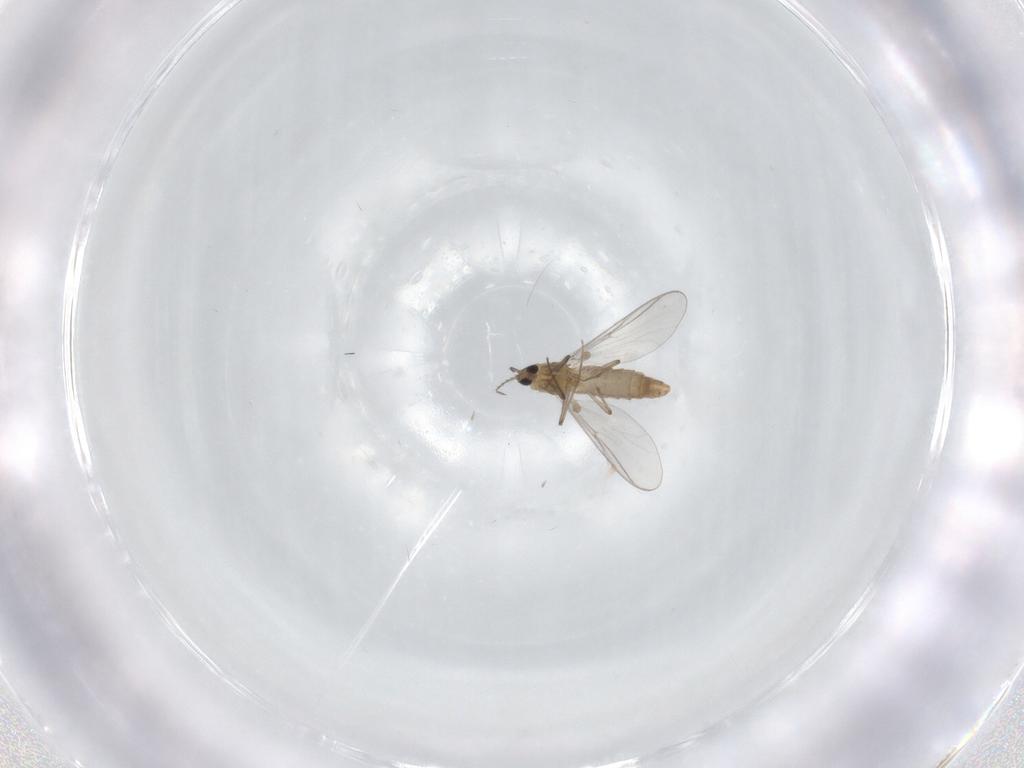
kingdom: Animalia
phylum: Arthropoda
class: Insecta
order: Diptera
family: Chironomidae
